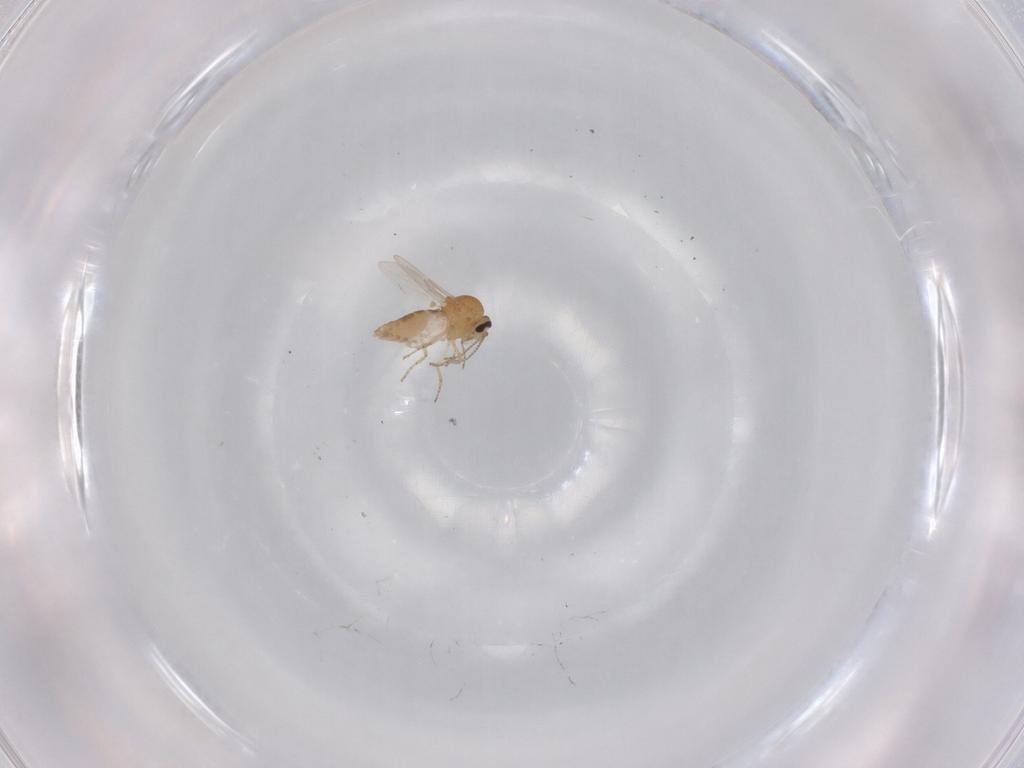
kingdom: Animalia
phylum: Arthropoda
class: Insecta
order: Diptera
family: Ceratopogonidae
